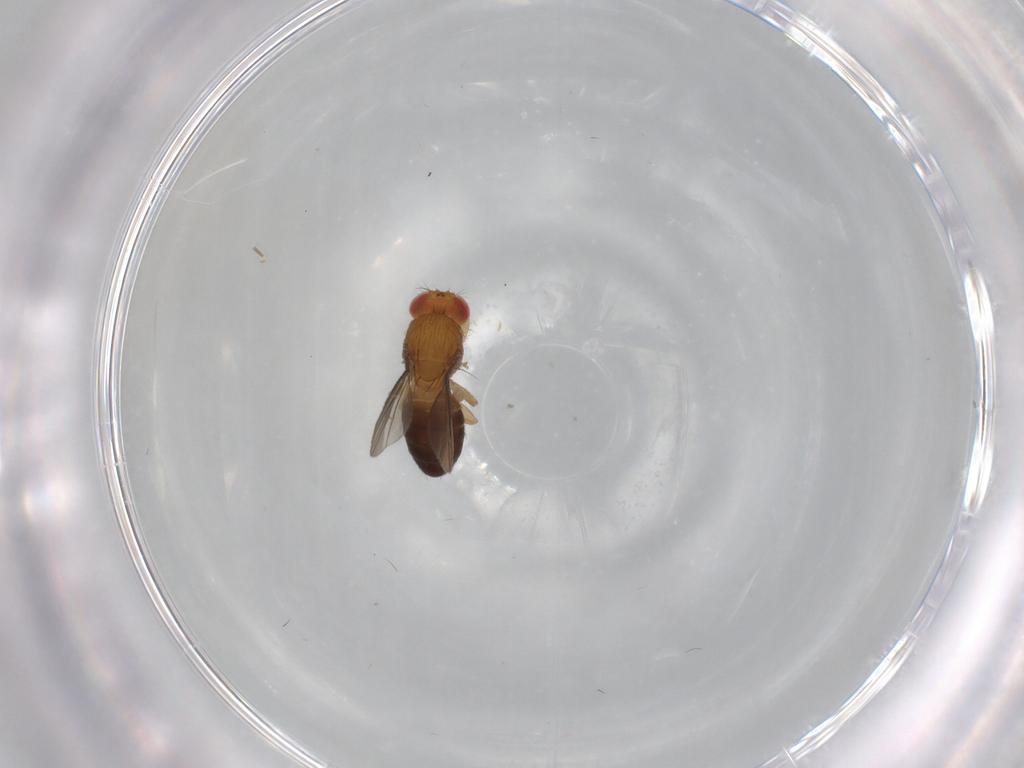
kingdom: Animalia
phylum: Arthropoda
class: Insecta
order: Diptera
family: Drosophilidae
